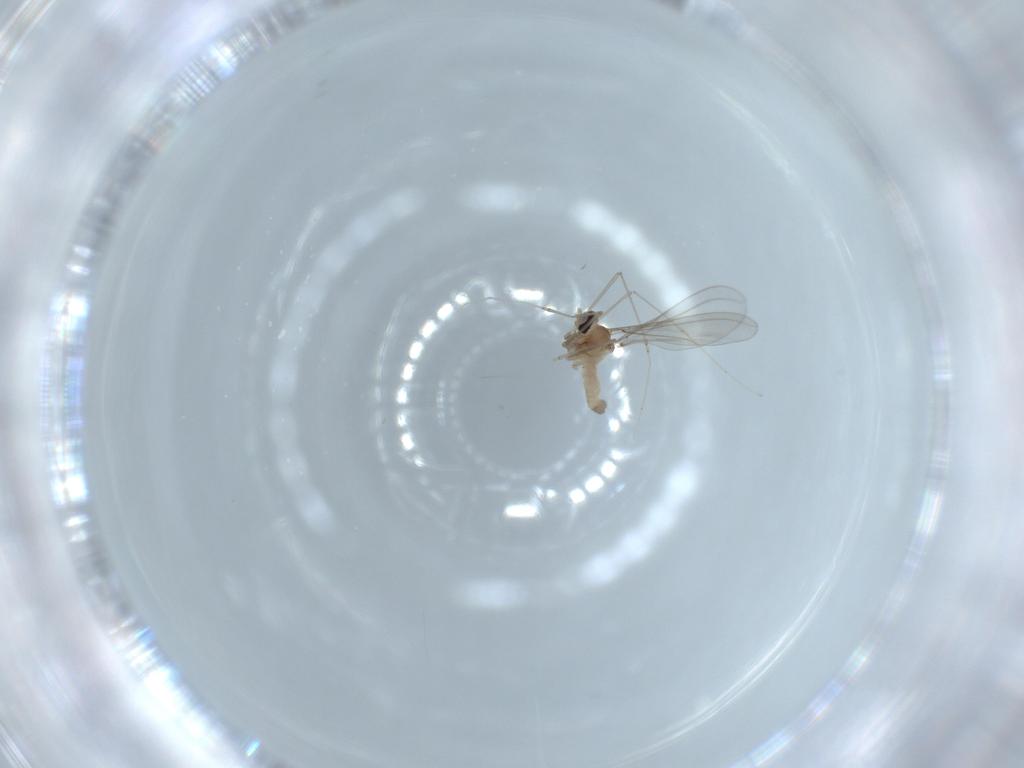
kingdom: Animalia
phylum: Arthropoda
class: Insecta
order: Diptera
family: Cecidomyiidae
